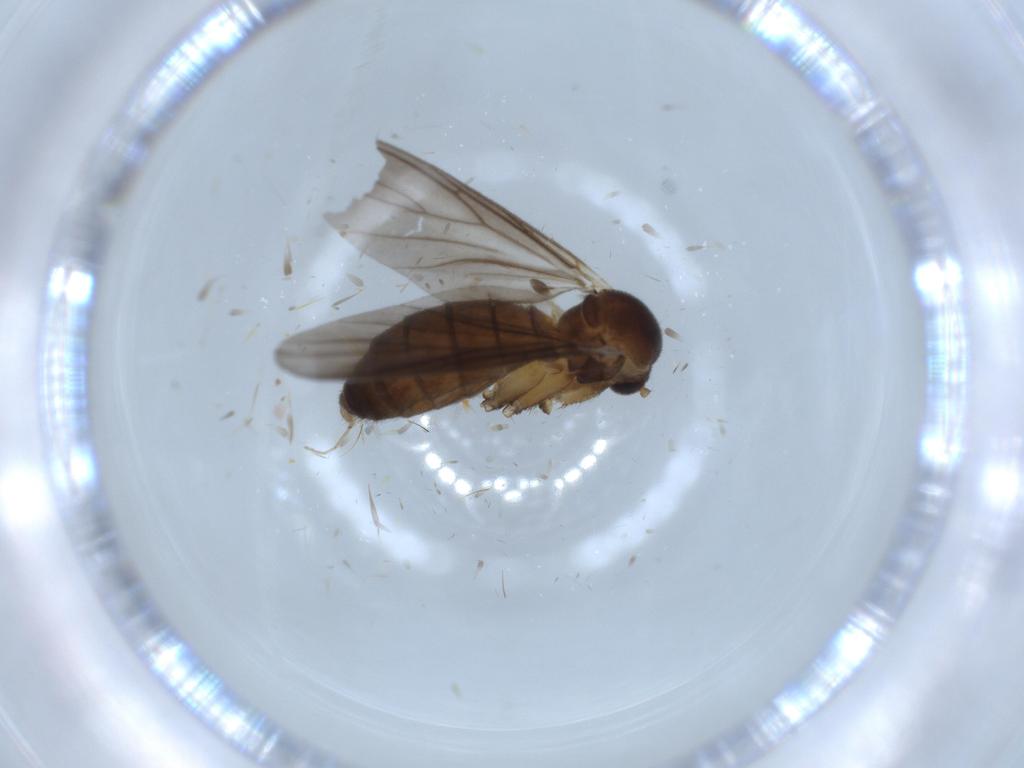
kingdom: Animalia
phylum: Arthropoda
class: Insecta
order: Diptera
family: Mycetophilidae
